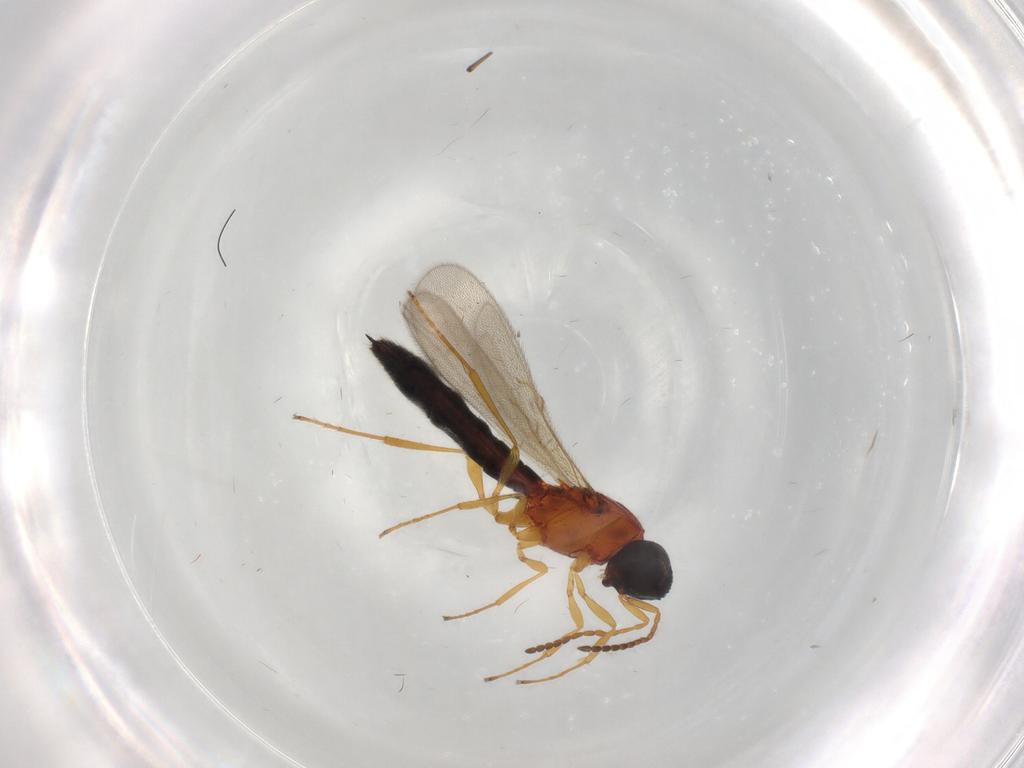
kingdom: Animalia
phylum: Arthropoda
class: Insecta
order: Hymenoptera
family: Scelionidae
